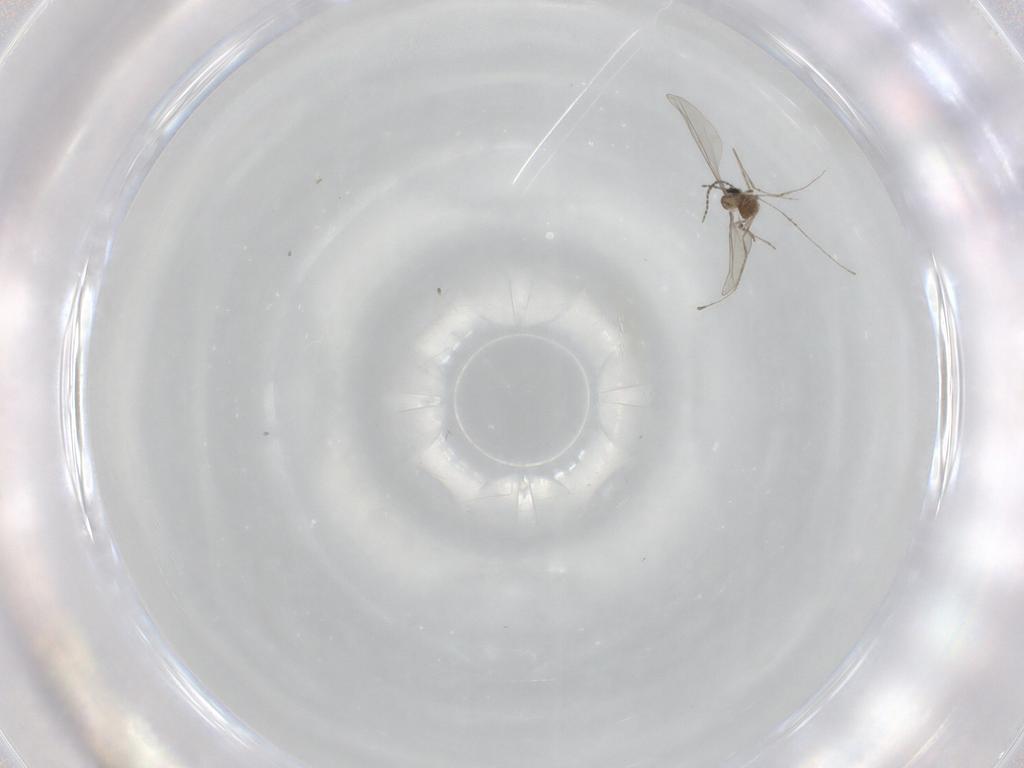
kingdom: Animalia
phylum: Arthropoda
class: Insecta
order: Diptera
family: Cecidomyiidae
